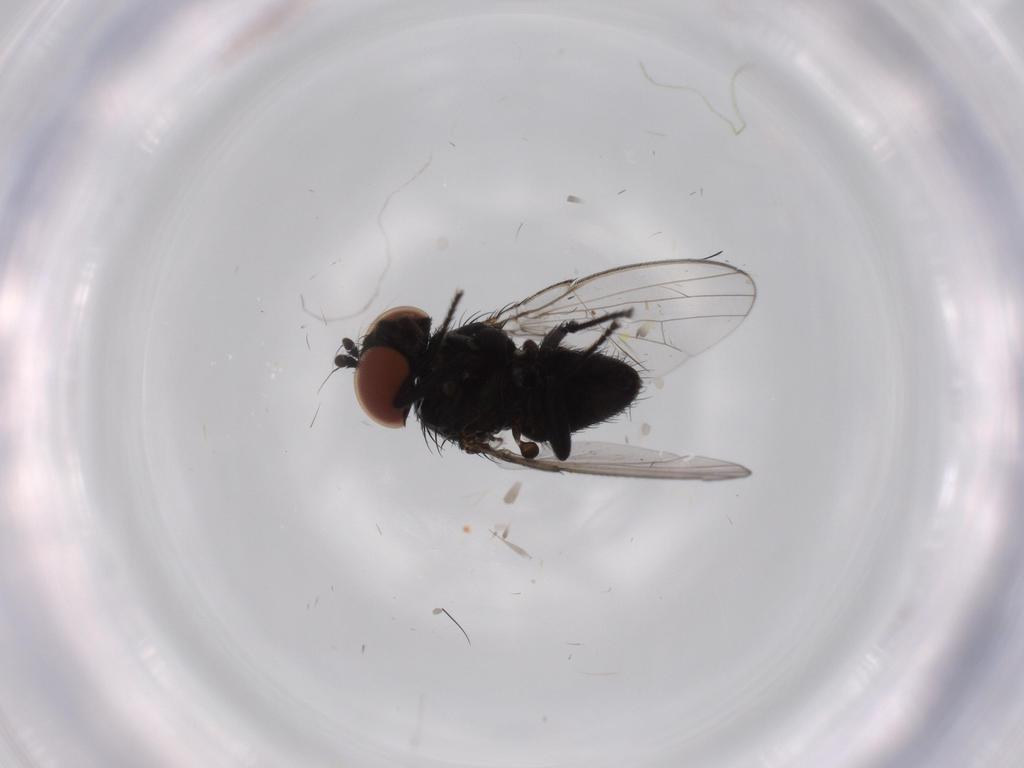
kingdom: Animalia
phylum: Arthropoda
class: Insecta
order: Diptera
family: Milichiidae
